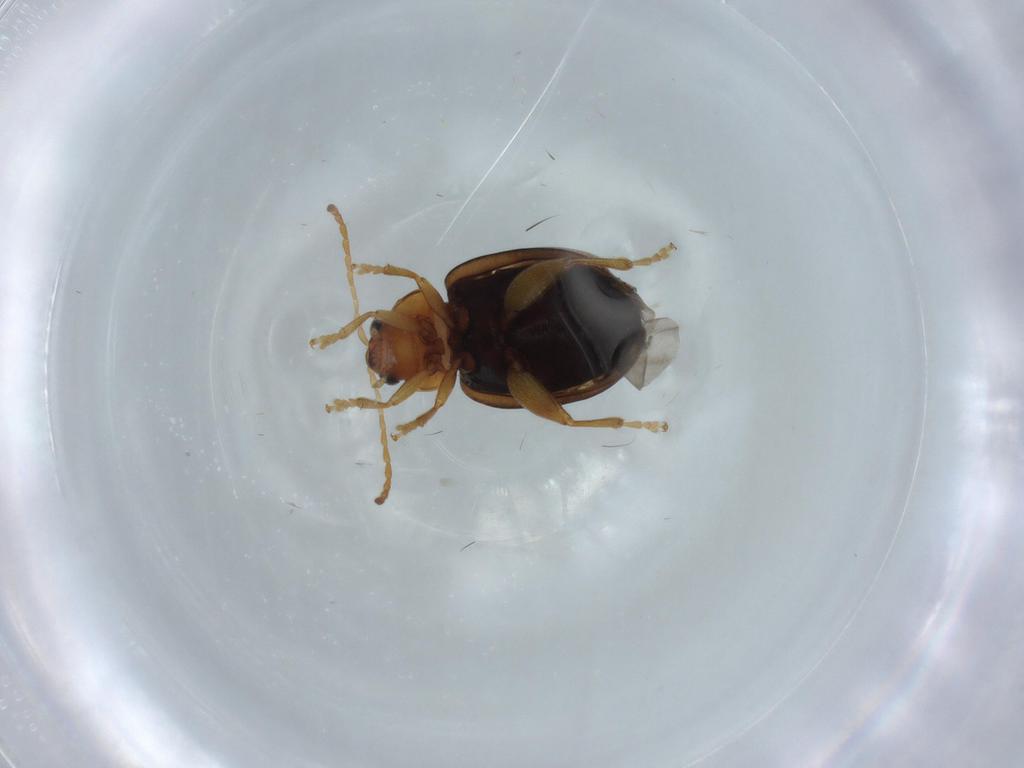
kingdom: Animalia
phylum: Arthropoda
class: Insecta
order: Coleoptera
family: Chrysomelidae
